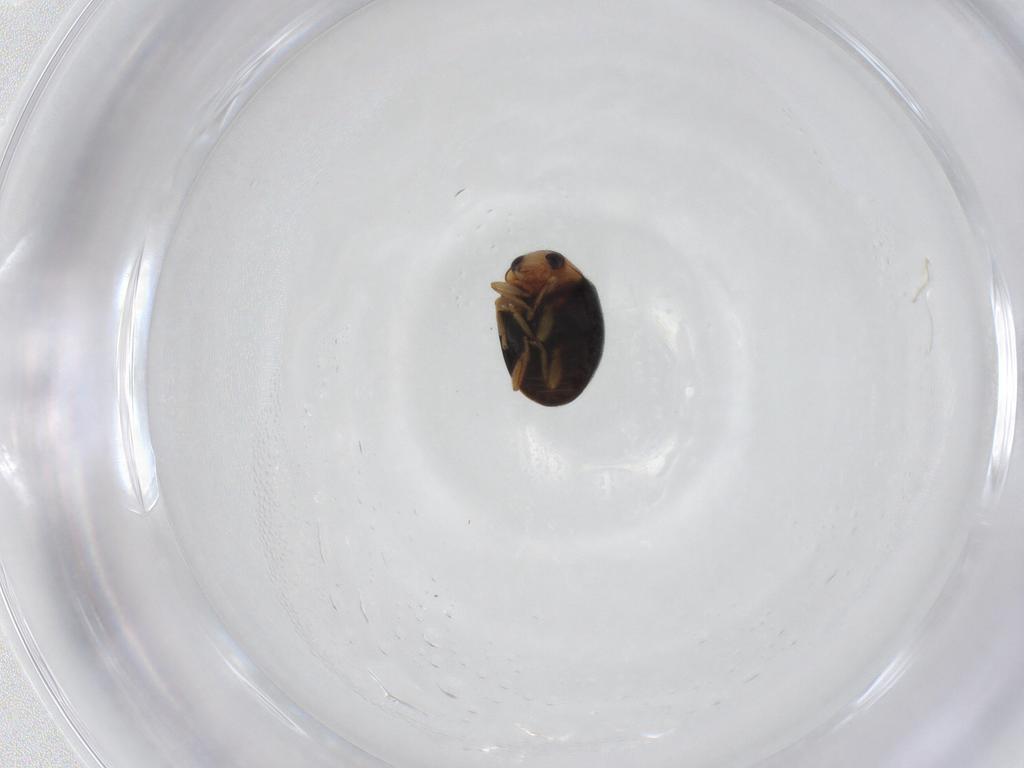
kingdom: Animalia
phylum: Arthropoda
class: Insecta
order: Coleoptera
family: Coccinellidae
